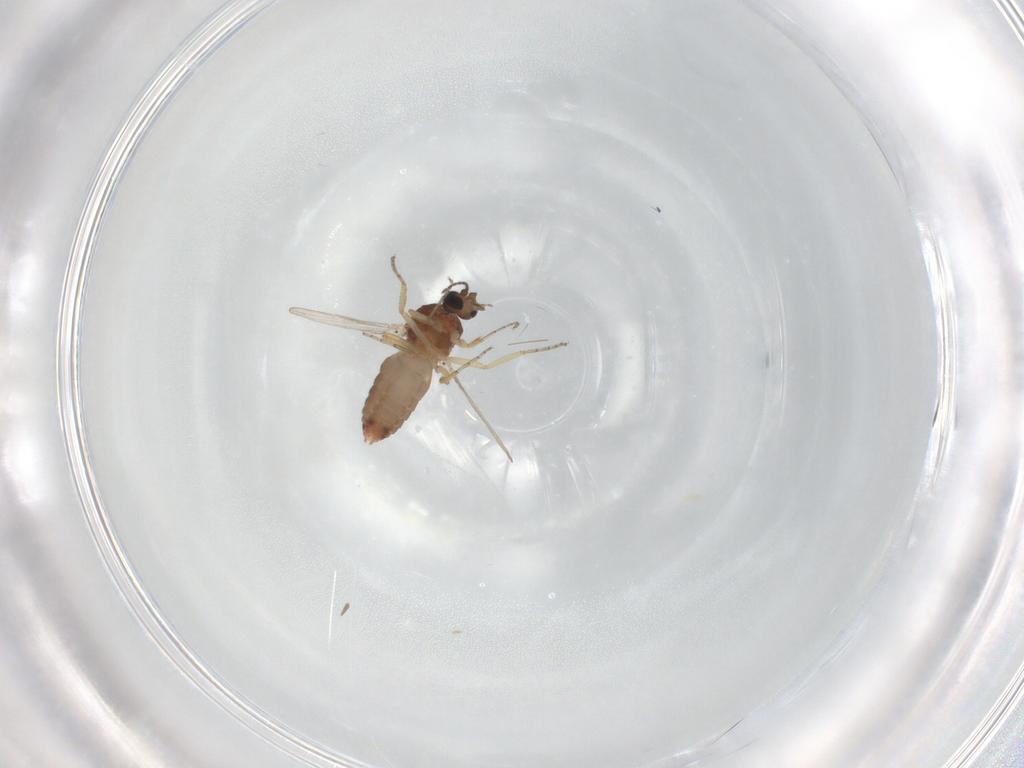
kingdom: Animalia
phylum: Arthropoda
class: Insecta
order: Diptera
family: Ceratopogonidae
